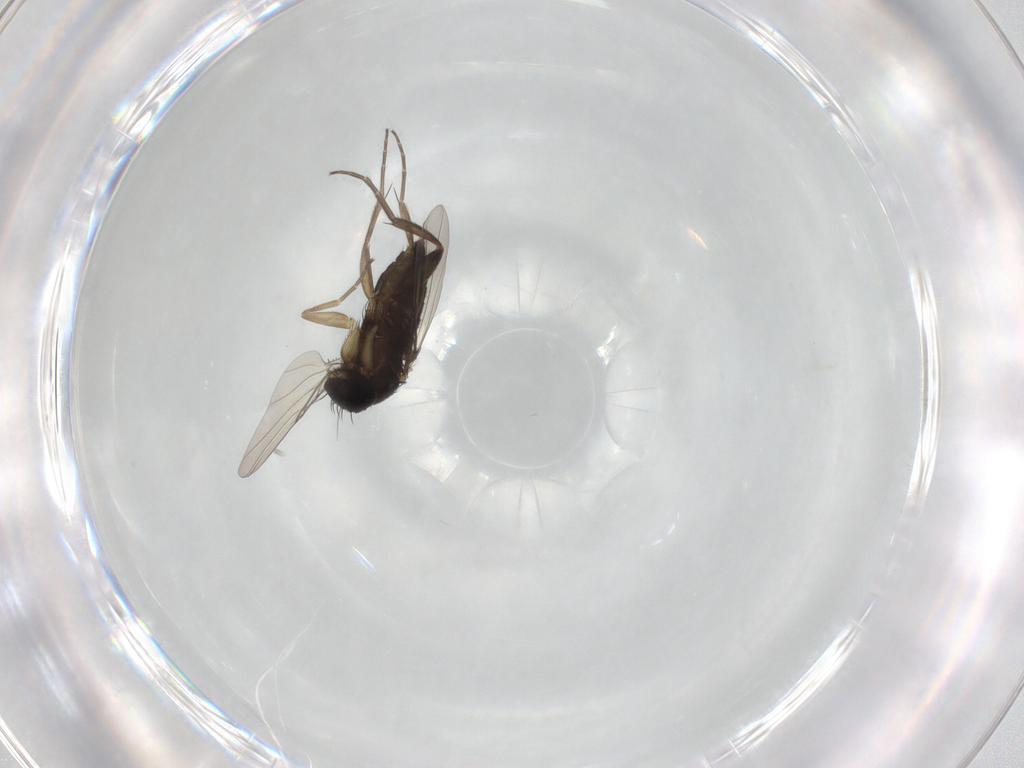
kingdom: Animalia
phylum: Arthropoda
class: Insecta
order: Diptera
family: Phoridae
